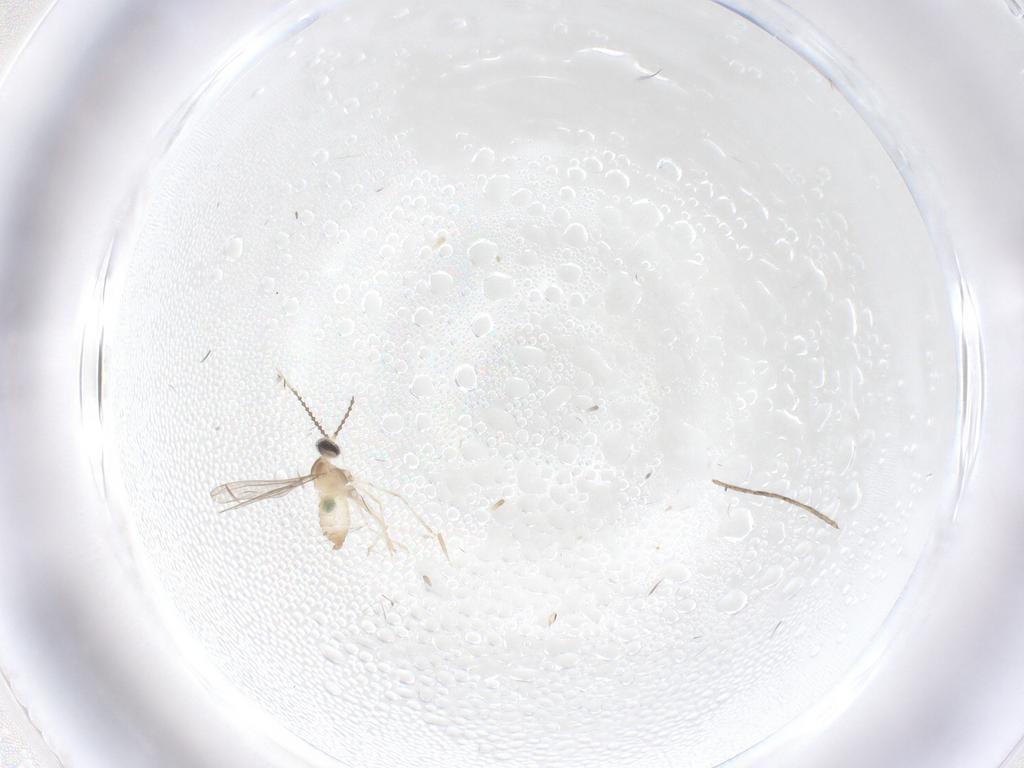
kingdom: Animalia
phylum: Arthropoda
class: Insecta
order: Diptera
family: Cecidomyiidae
